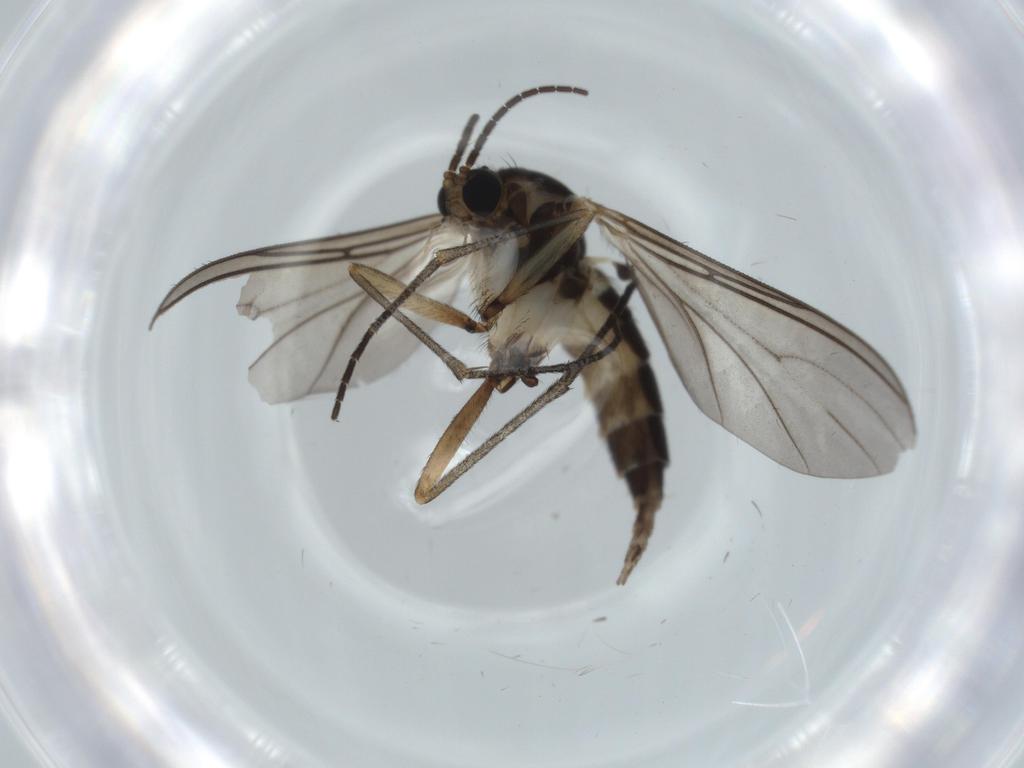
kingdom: Animalia
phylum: Arthropoda
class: Insecta
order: Diptera
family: Sciaridae
